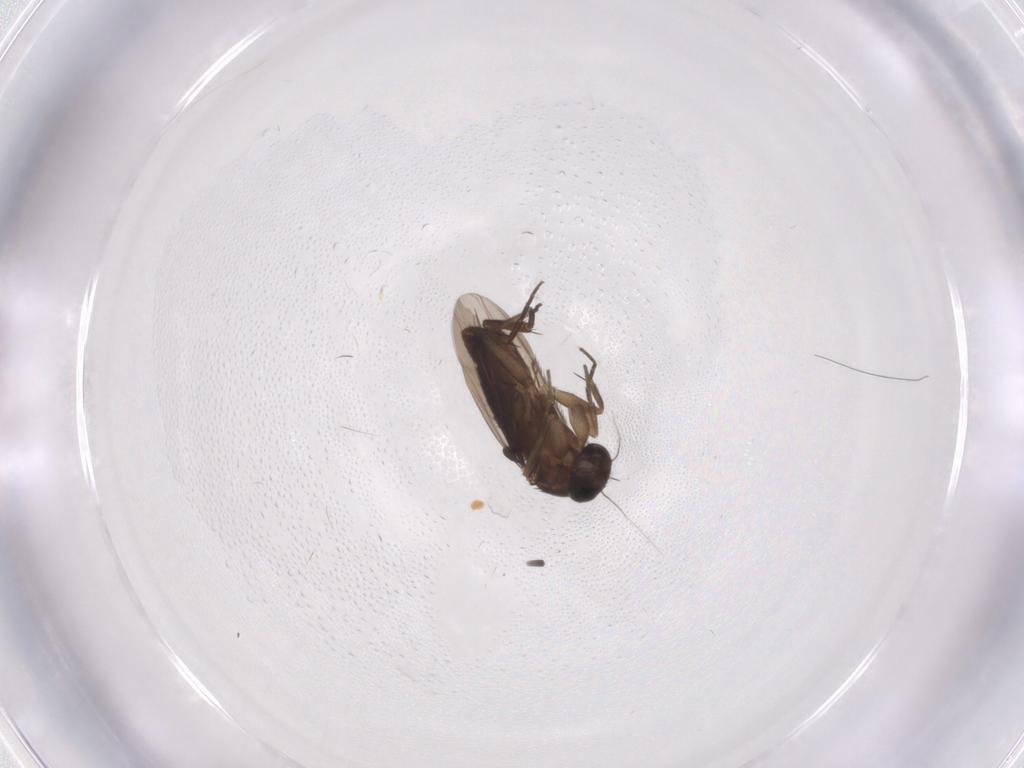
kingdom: Animalia
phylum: Arthropoda
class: Insecta
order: Diptera
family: Phoridae
